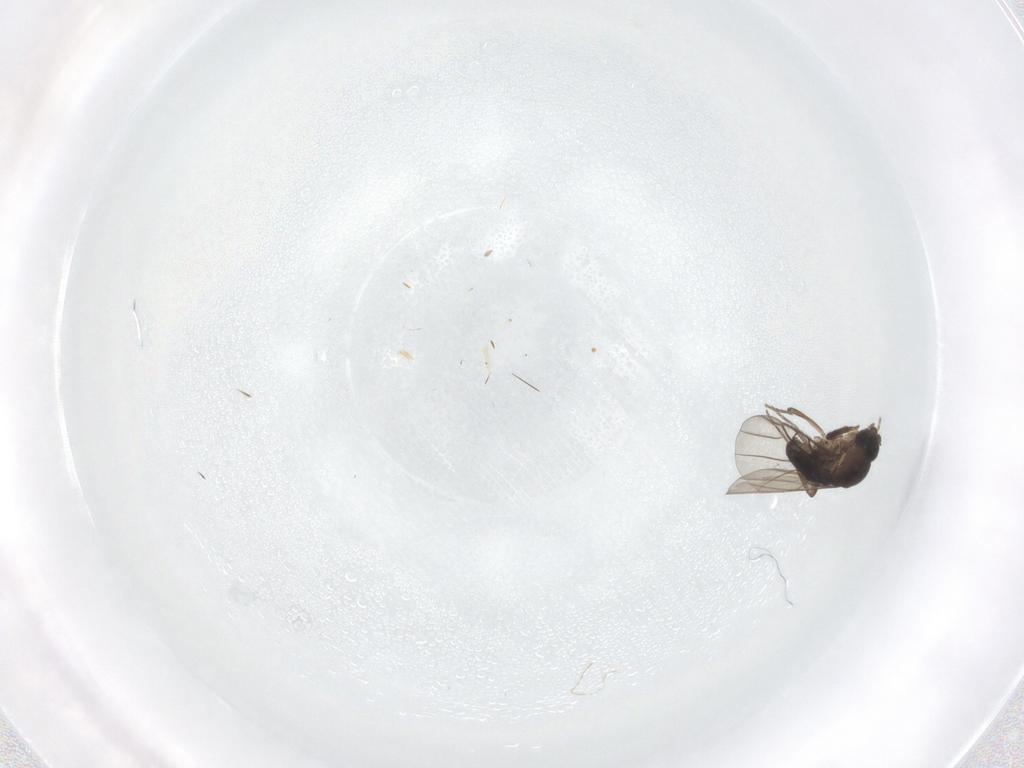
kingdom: Animalia
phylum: Arthropoda
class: Insecta
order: Diptera
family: Phoridae
